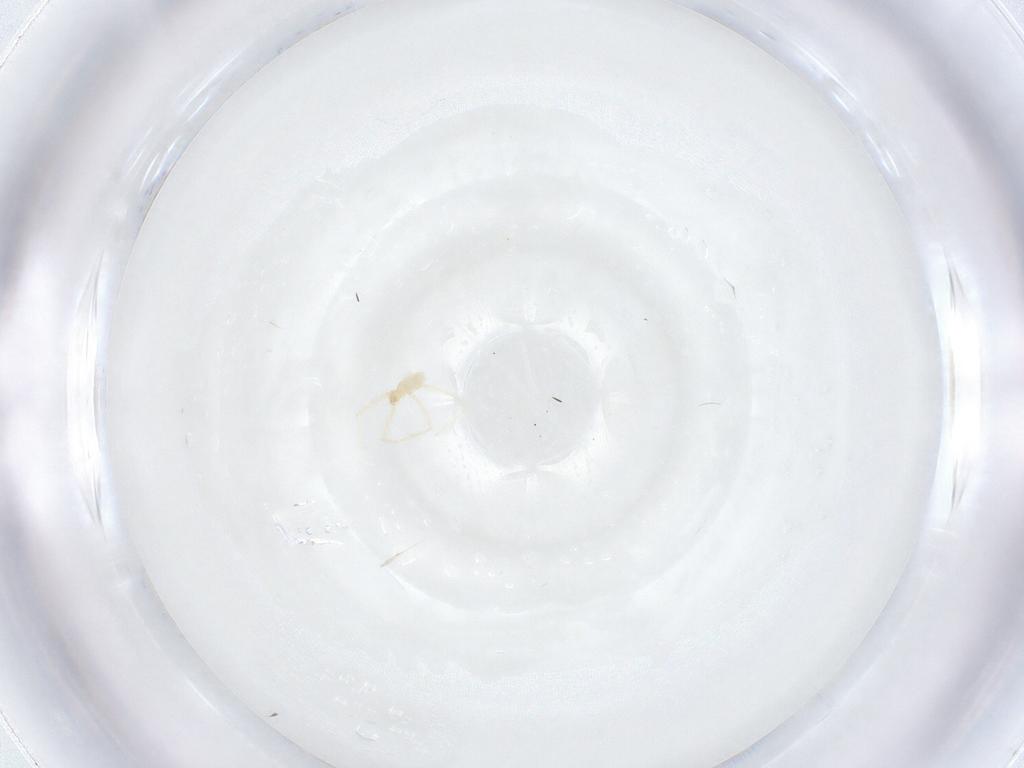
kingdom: Animalia
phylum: Arthropoda
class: Arachnida
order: Trombidiformes
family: Erythraeidae
